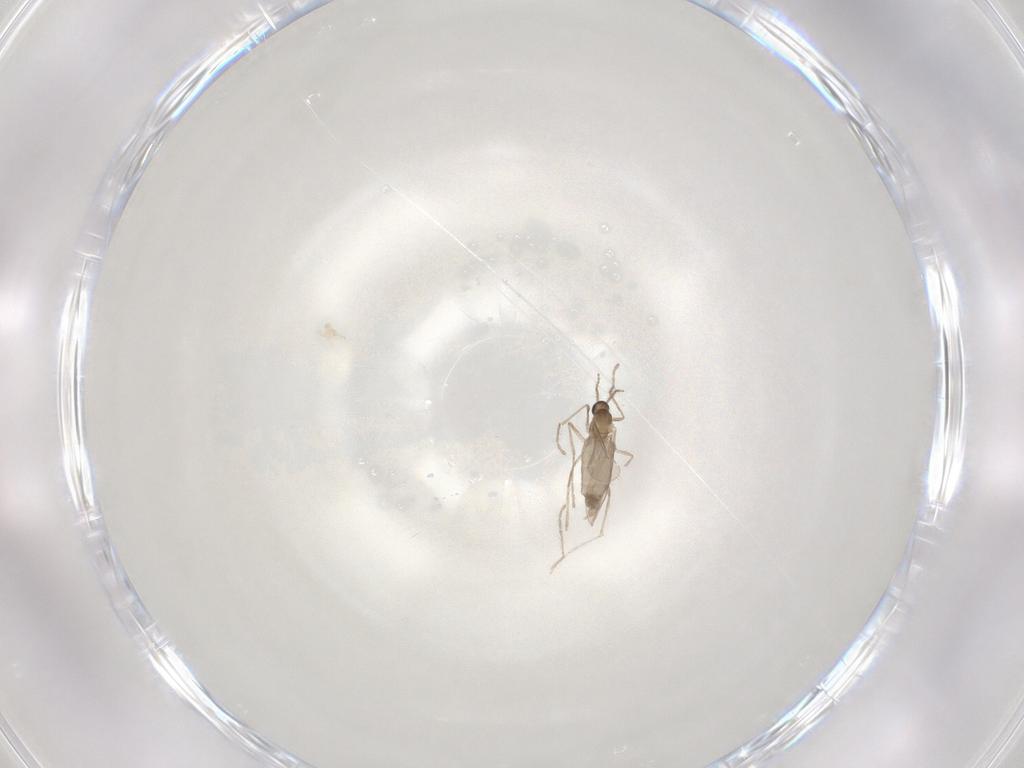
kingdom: Animalia
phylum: Arthropoda
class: Insecta
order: Diptera
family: Cecidomyiidae
